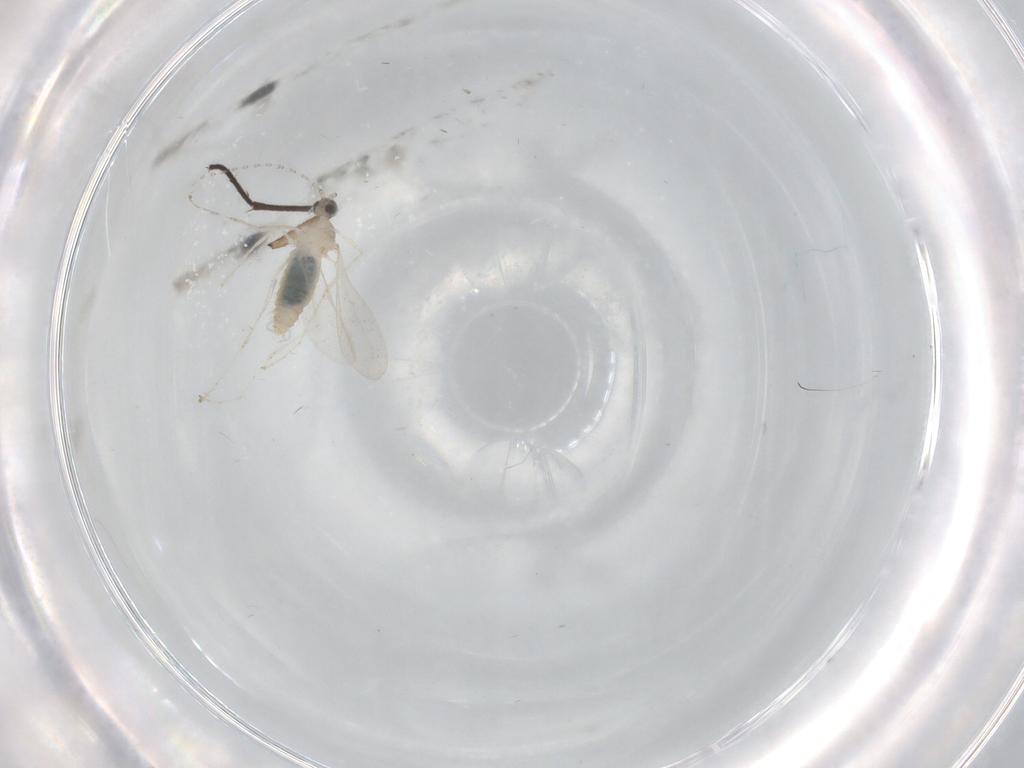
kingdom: Animalia
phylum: Arthropoda
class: Insecta
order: Diptera
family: Cecidomyiidae
